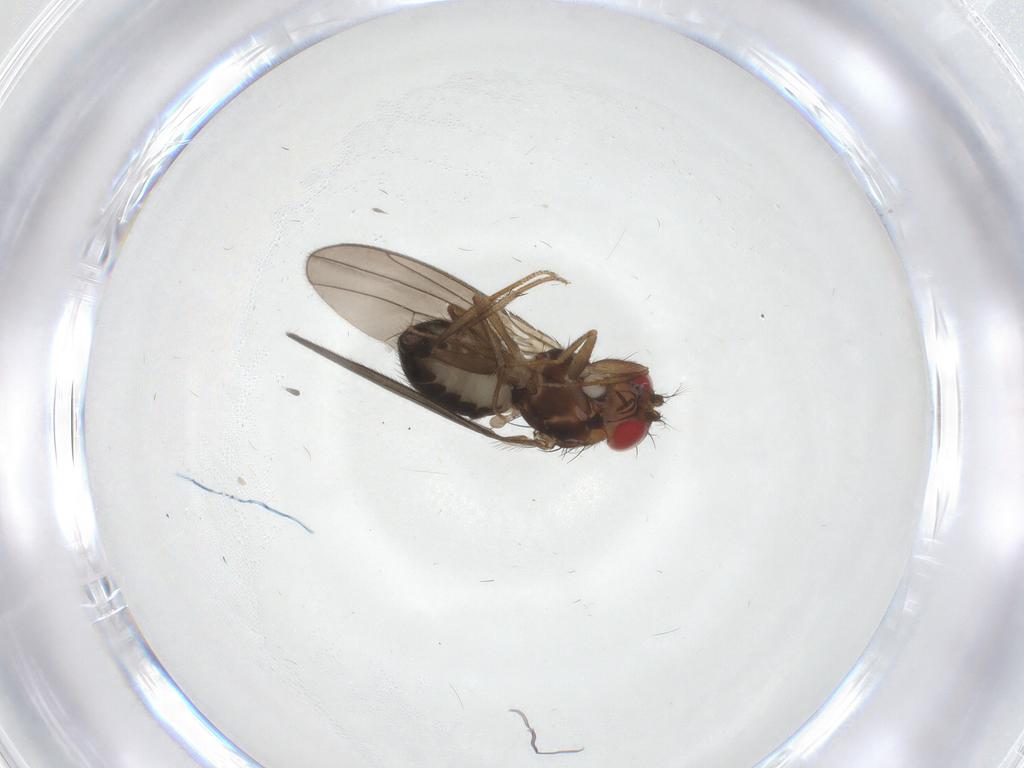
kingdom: Animalia
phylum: Arthropoda
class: Insecta
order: Diptera
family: Drosophilidae
